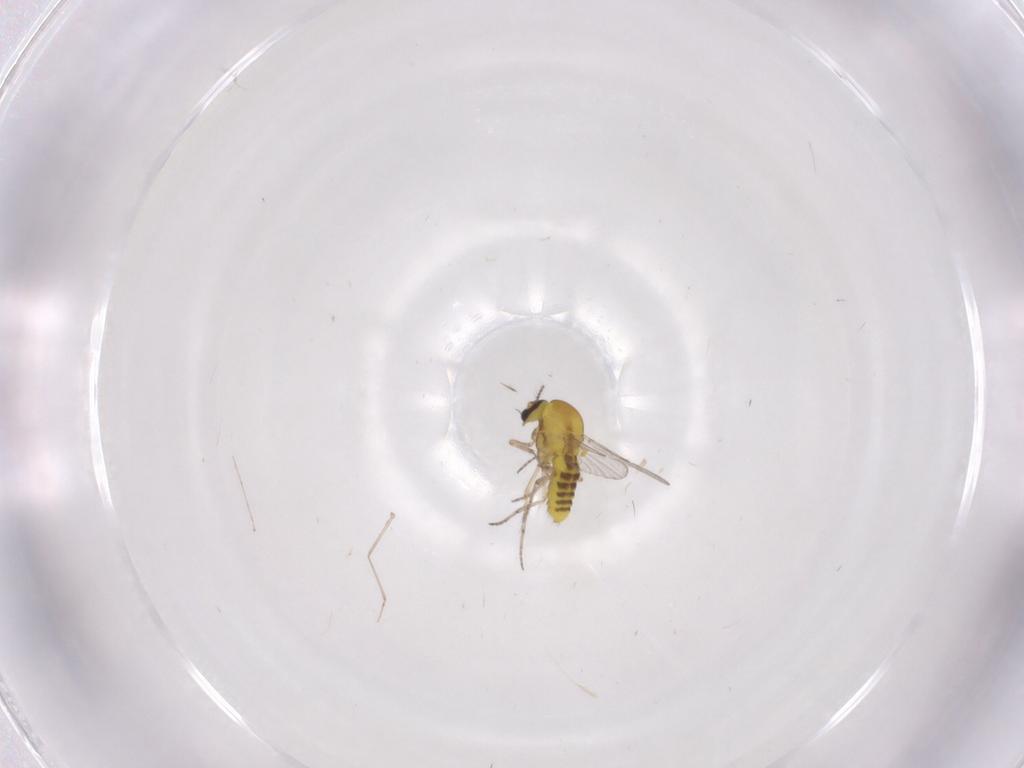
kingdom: Animalia
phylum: Arthropoda
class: Insecta
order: Diptera
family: Ceratopogonidae
